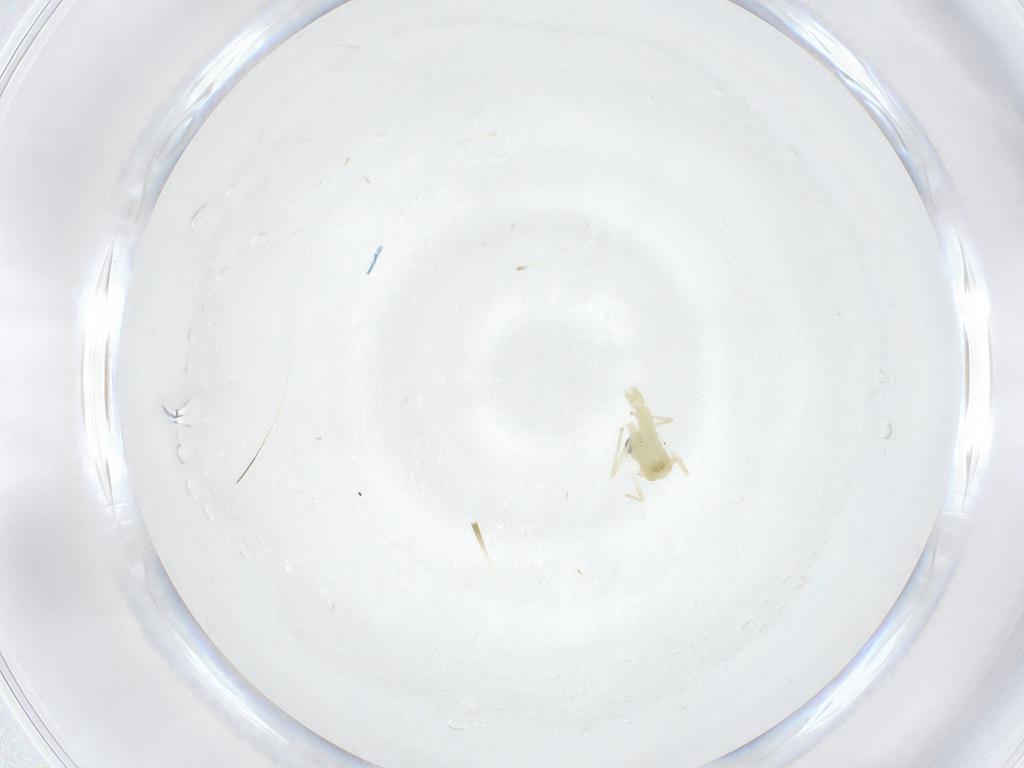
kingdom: Animalia
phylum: Arthropoda
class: Insecta
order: Diptera
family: Chironomidae
